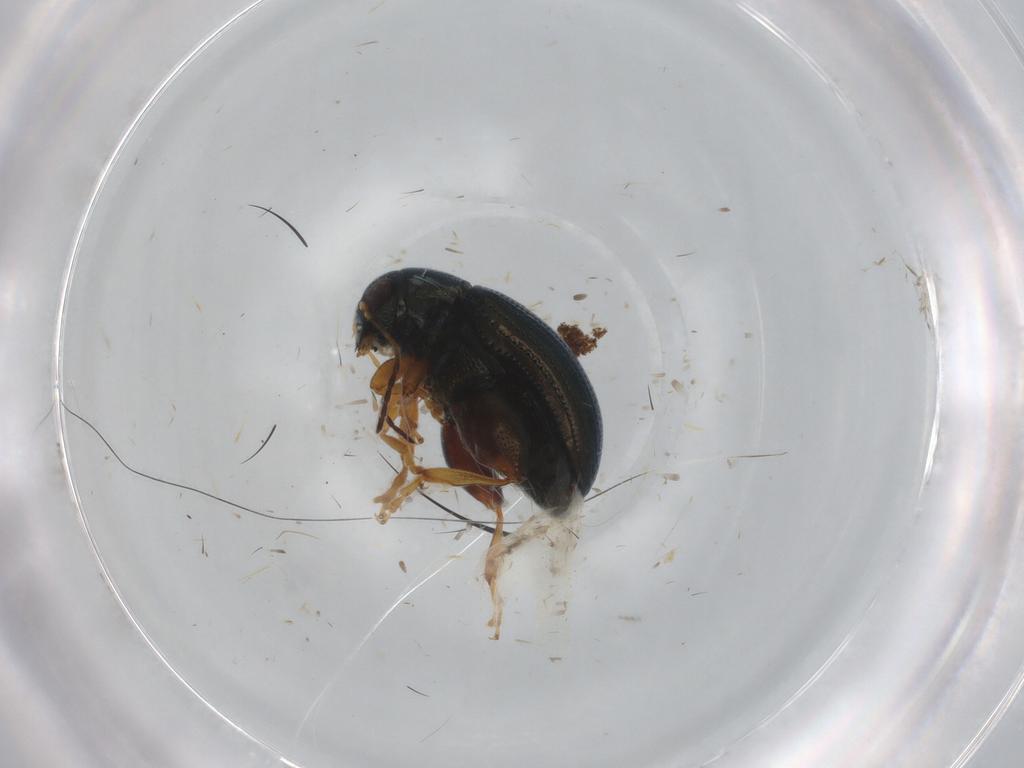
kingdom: Animalia
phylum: Arthropoda
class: Insecta
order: Coleoptera
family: Chrysomelidae
